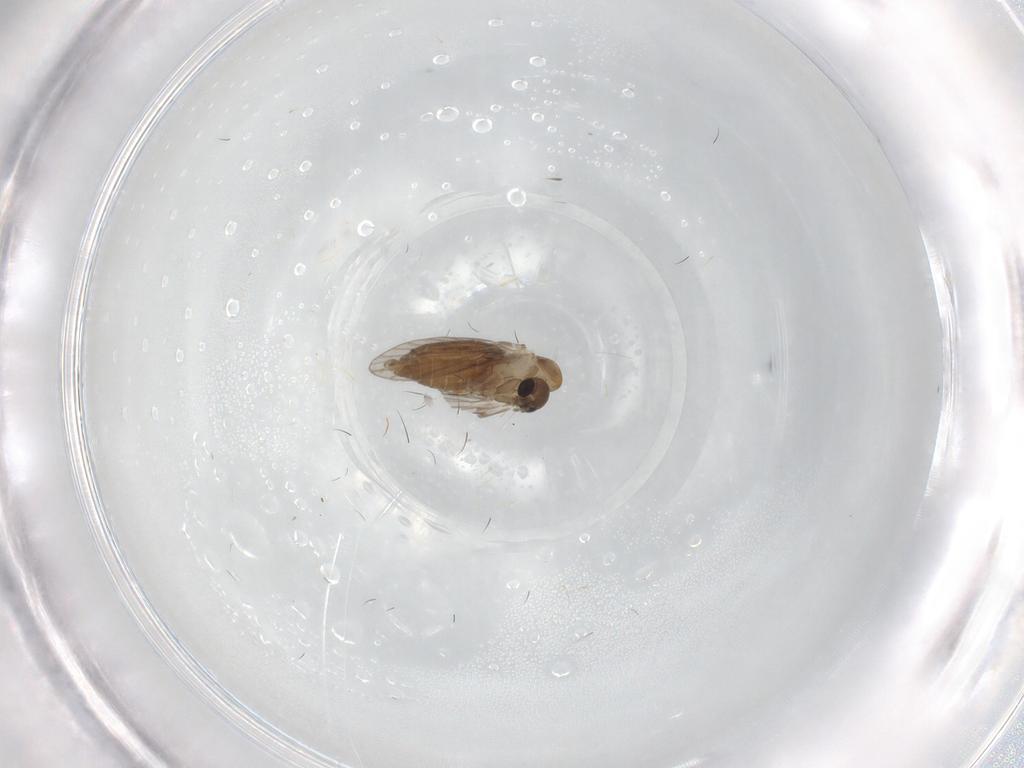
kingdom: Animalia
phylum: Arthropoda
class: Insecta
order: Diptera
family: Psychodidae
